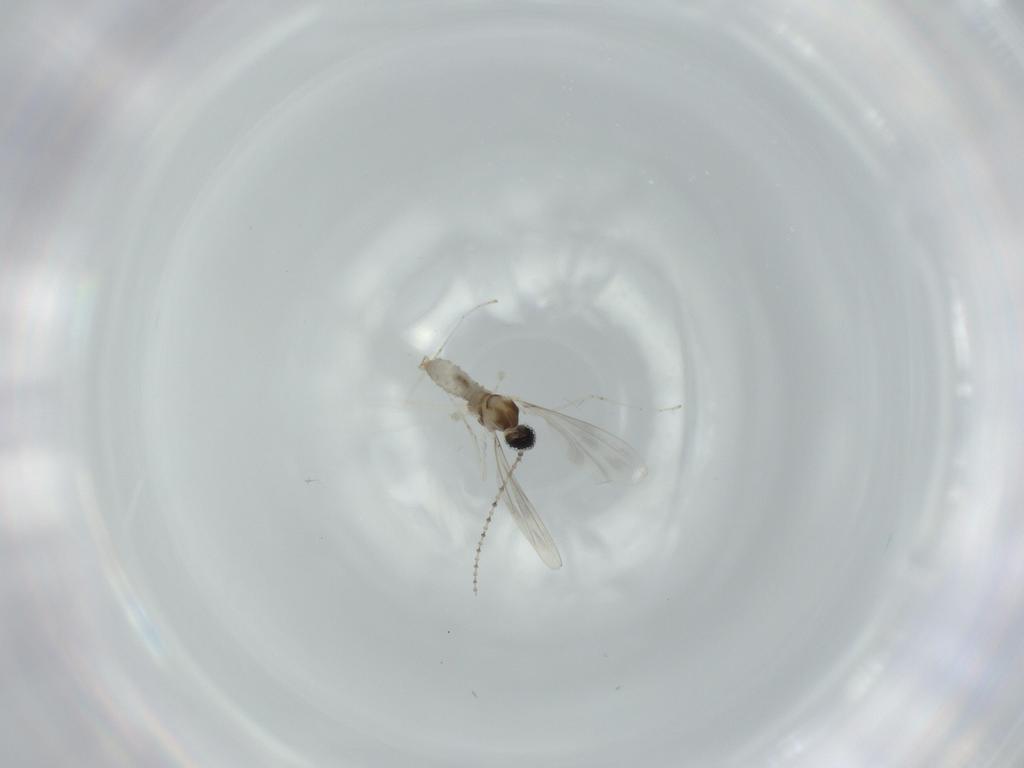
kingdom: Animalia
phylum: Arthropoda
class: Insecta
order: Diptera
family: Cecidomyiidae
